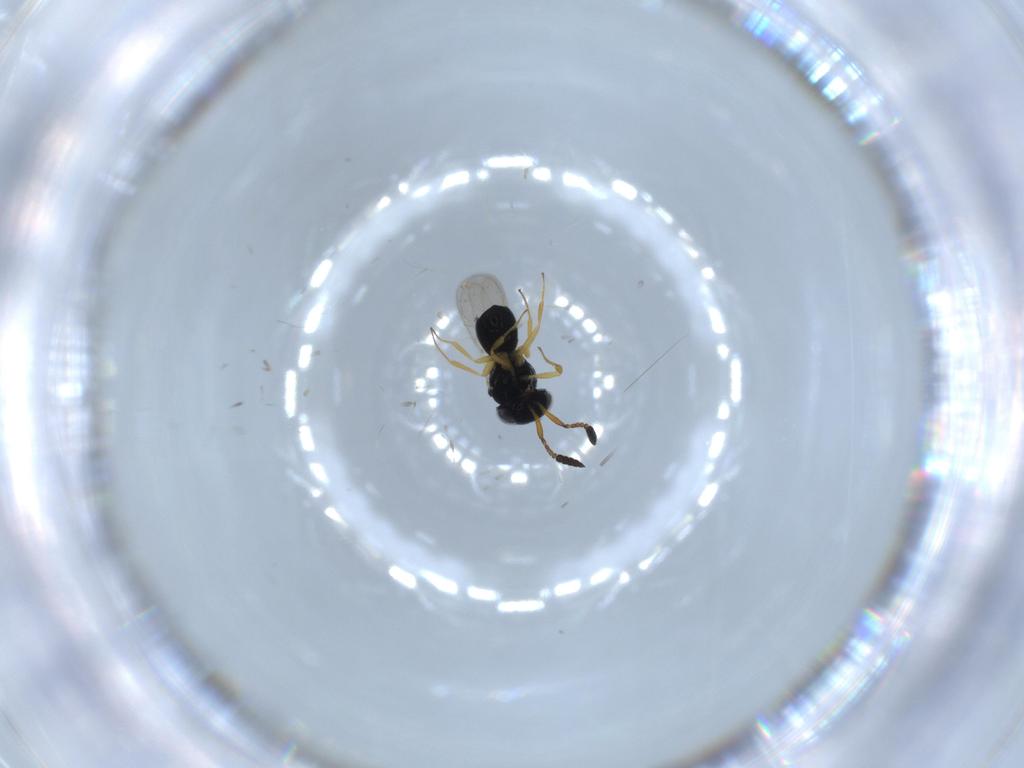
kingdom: Animalia
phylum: Arthropoda
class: Insecta
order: Hymenoptera
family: Scelionidae
